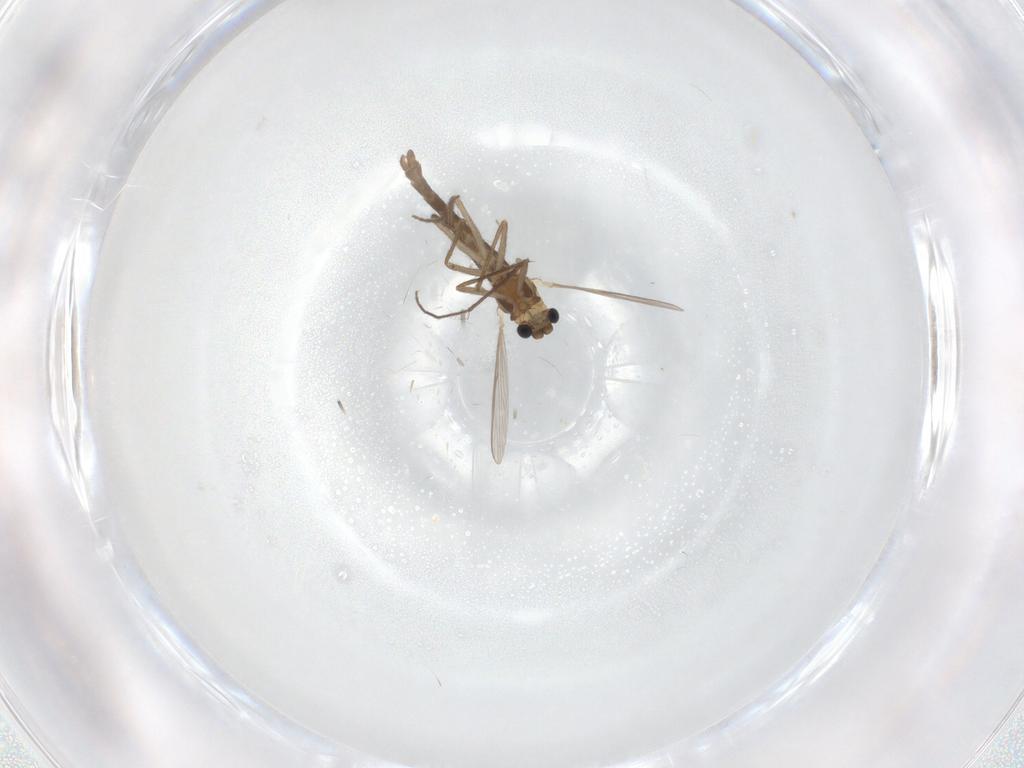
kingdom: Animalia
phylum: Arthropoda
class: Insecta
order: Diptera
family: Chironomidae
